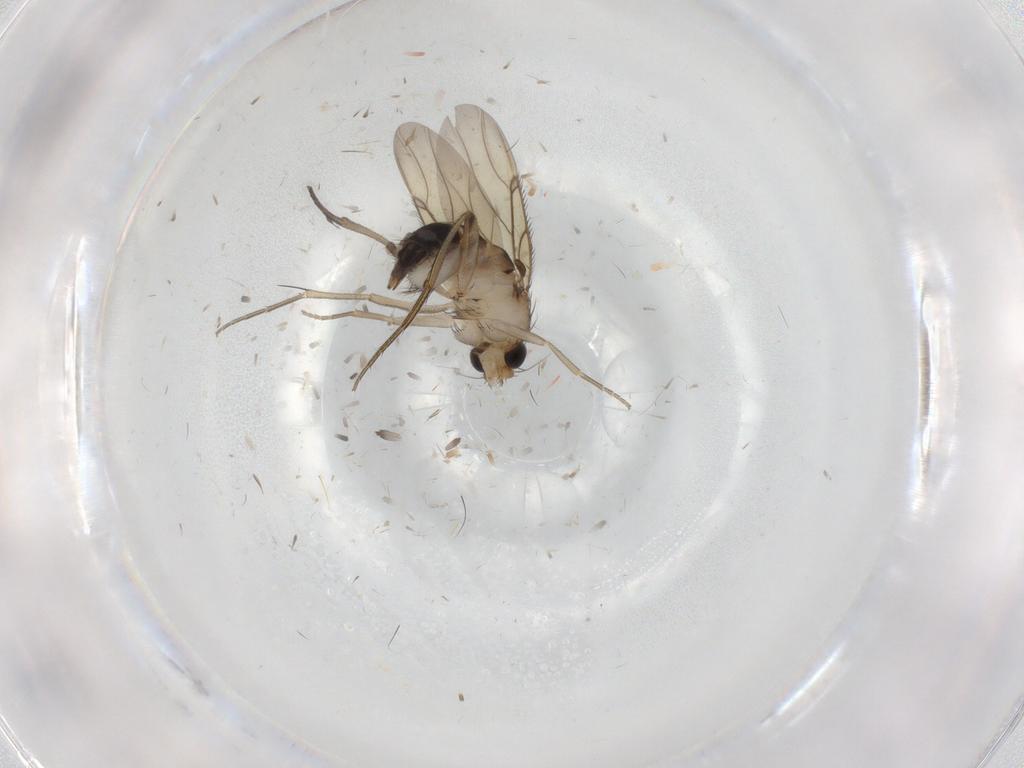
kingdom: Animalia
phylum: Arthropoda
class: Insecta
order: Diptera
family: Phoridae
